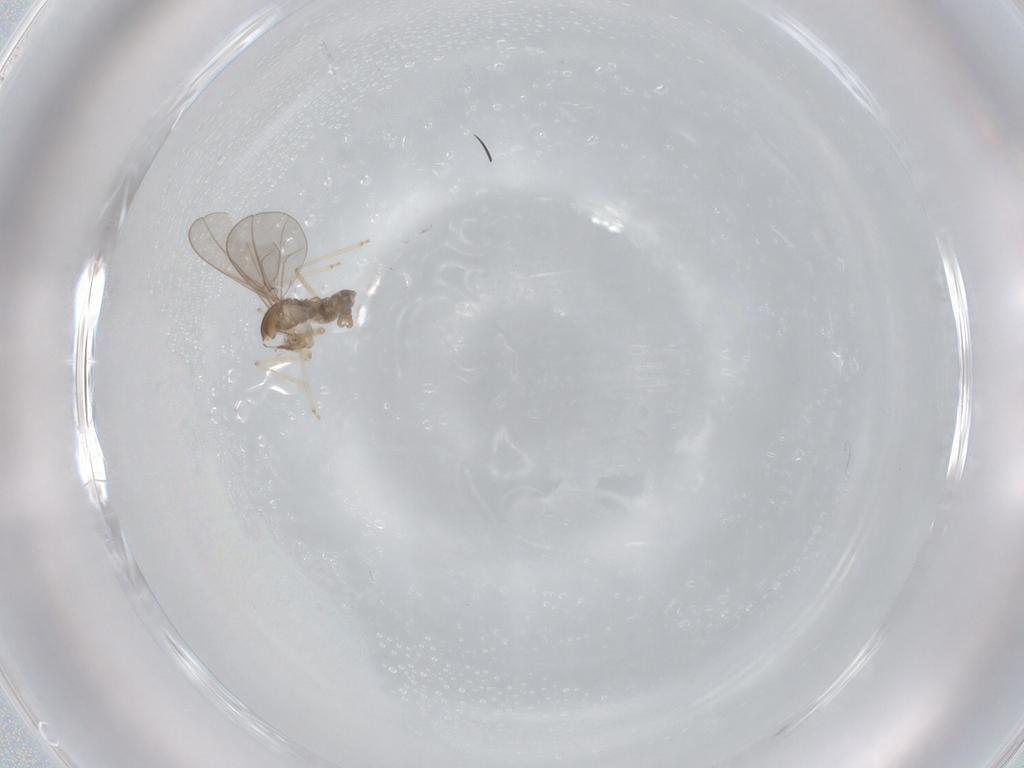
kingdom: Animalia
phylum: Arthropoda
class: Insecta
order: Diptera
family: Cecidomyiidae
